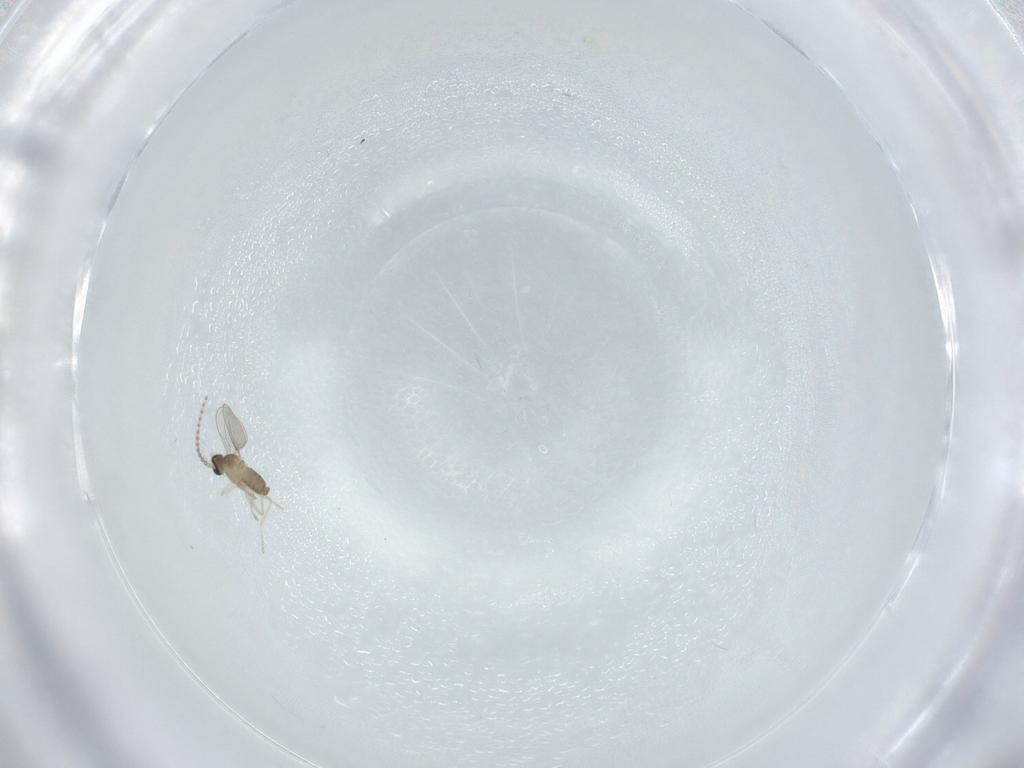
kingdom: Animalia
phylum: Arthropoda
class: Insecta
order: Diptera
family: Cecidomyiidae
